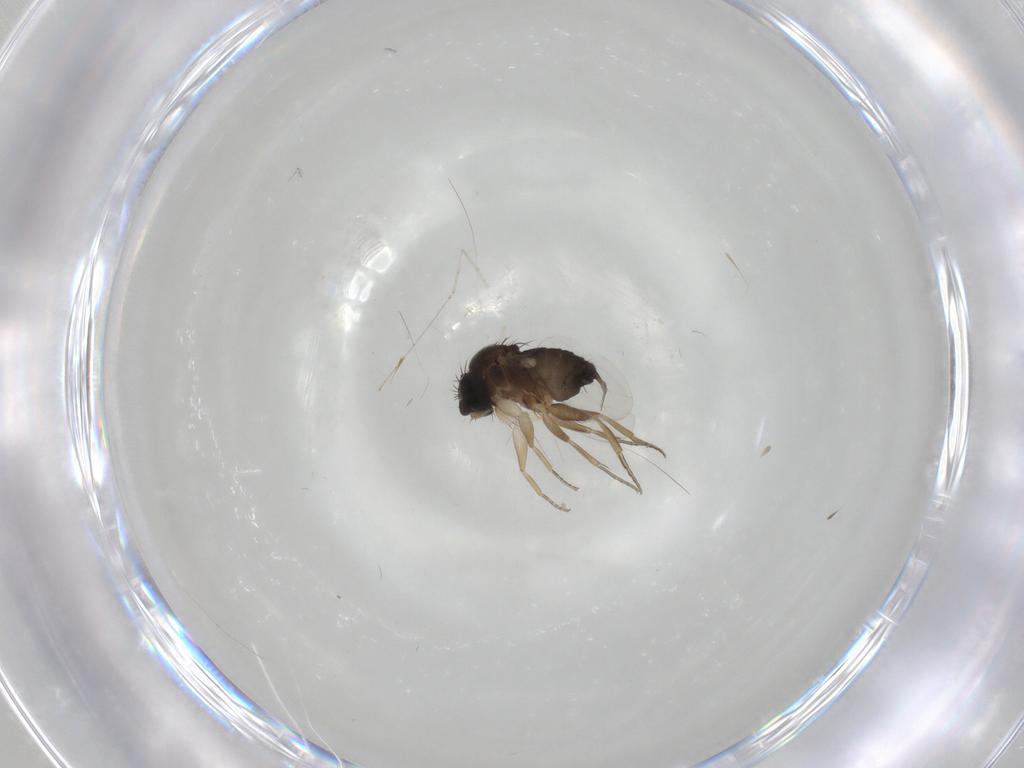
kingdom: Animalia
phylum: Arthropoda
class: Insecta
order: Diptera
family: Phoridae
